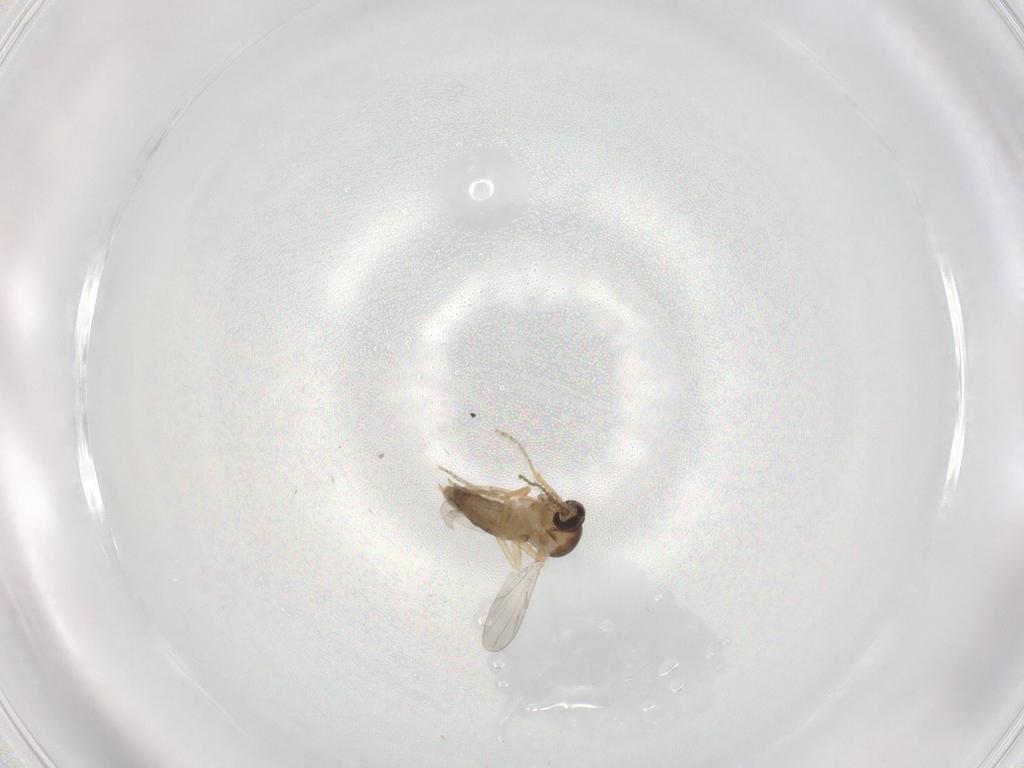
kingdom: Animalia
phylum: Arthropoda
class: Insecta
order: Diptera
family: Ceratopogonidae
